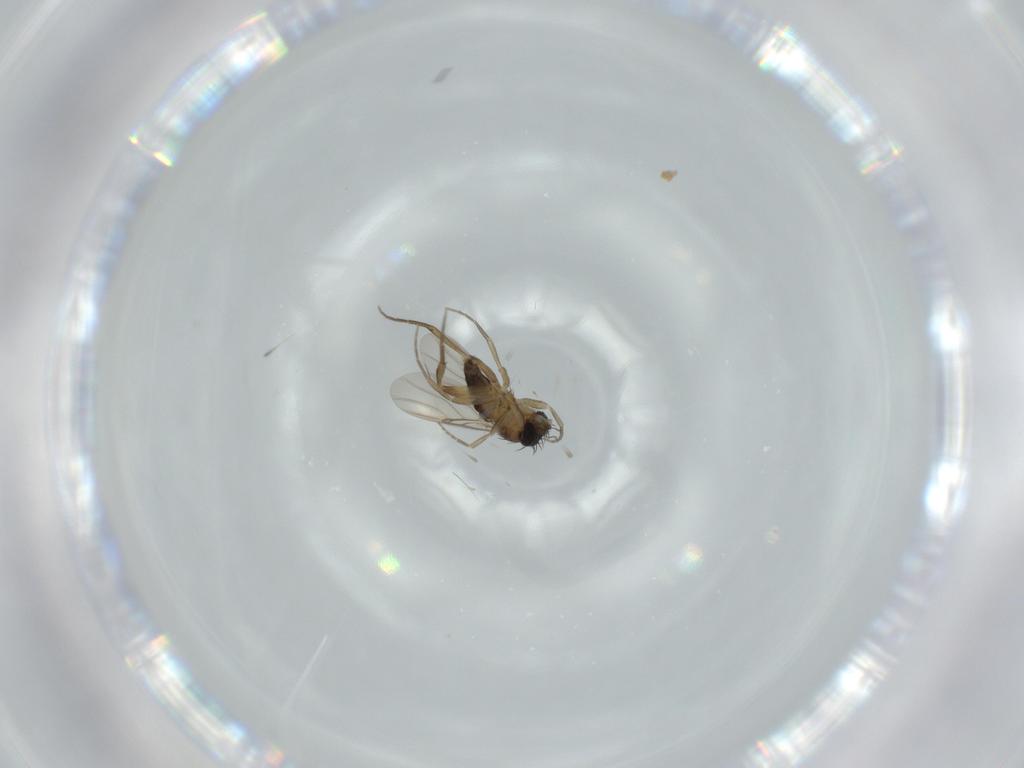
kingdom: Animalia
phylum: Arthropoda
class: Insecta
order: Diptera
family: Phoridae
